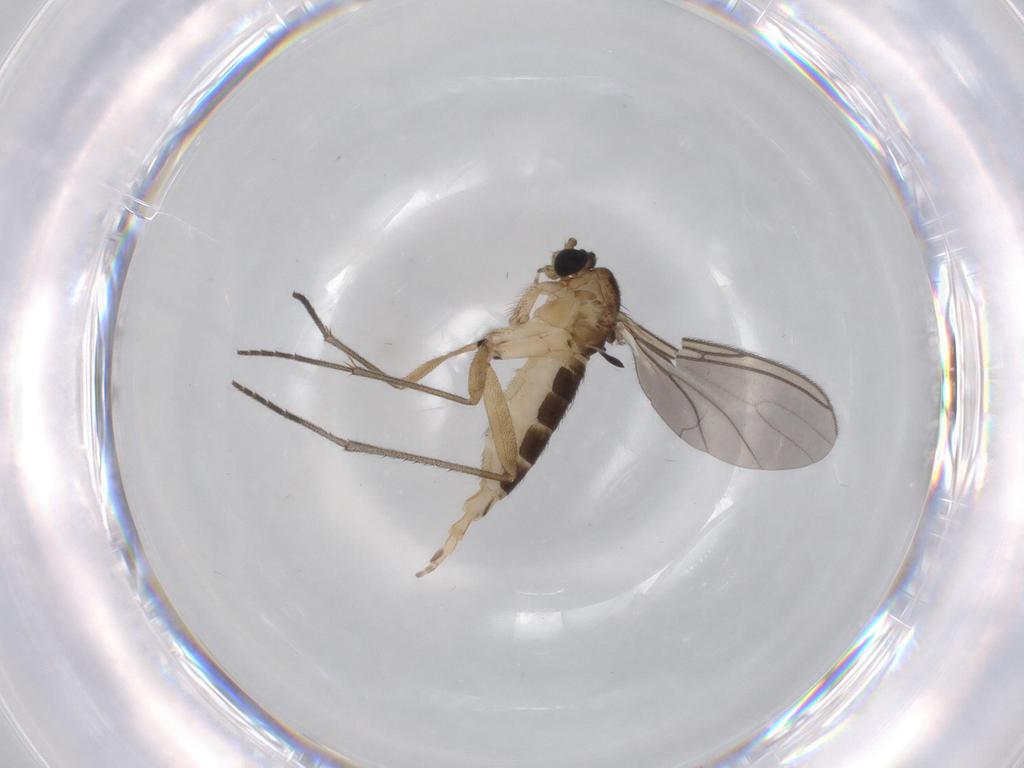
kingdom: Animalia
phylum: Arthropoda
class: Insecta
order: Diptera
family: Sciaridae
